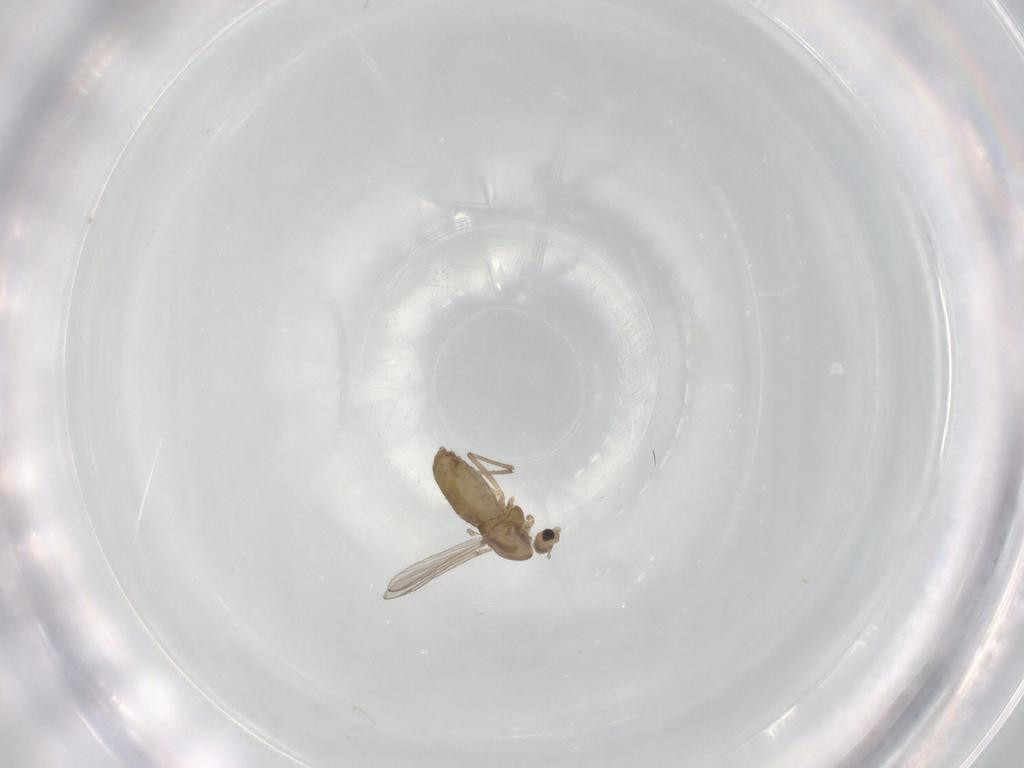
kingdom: Animalia
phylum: Arthropoda
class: Insecta
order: Diptera
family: Chironomidae
